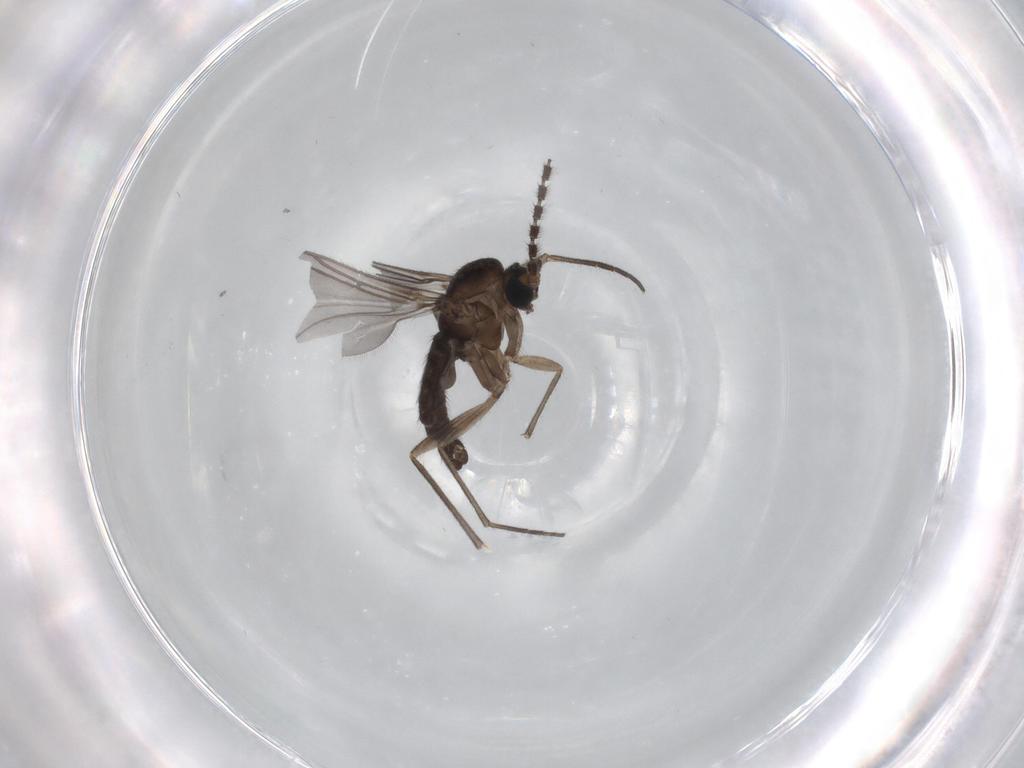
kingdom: Animalia
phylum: Arthropoda
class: Insecta
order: Diptera
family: Sciaridae
